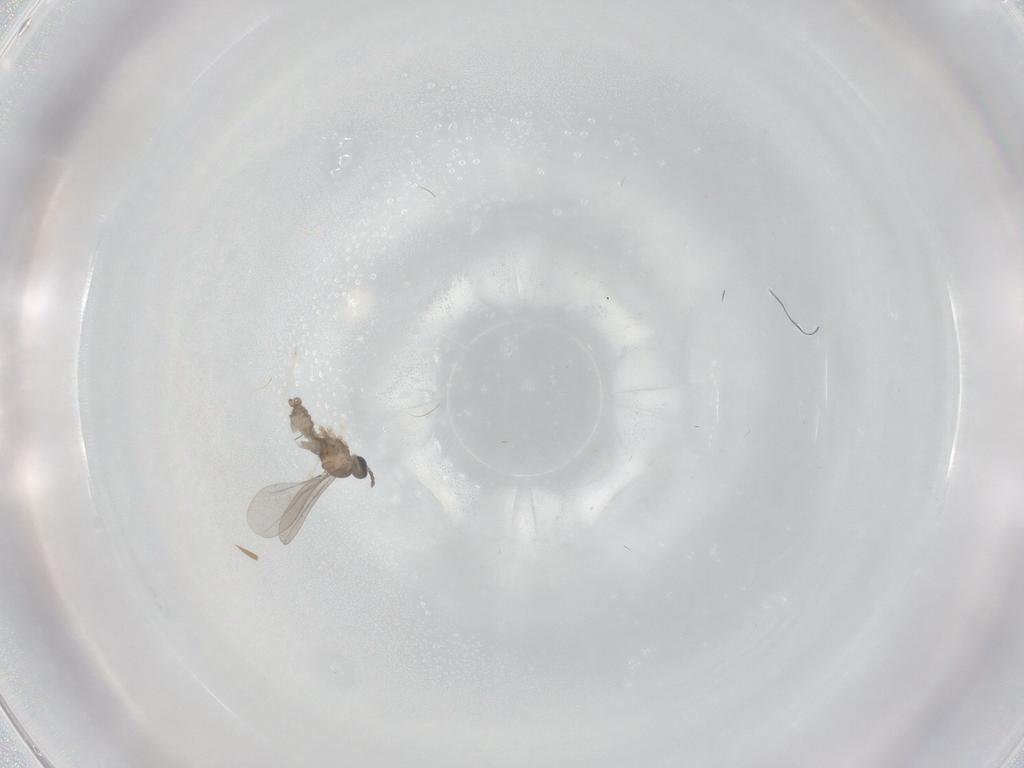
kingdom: Animalia
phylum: Arthropoda
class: Insecta
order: Diptera
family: Cecidomyiidae
